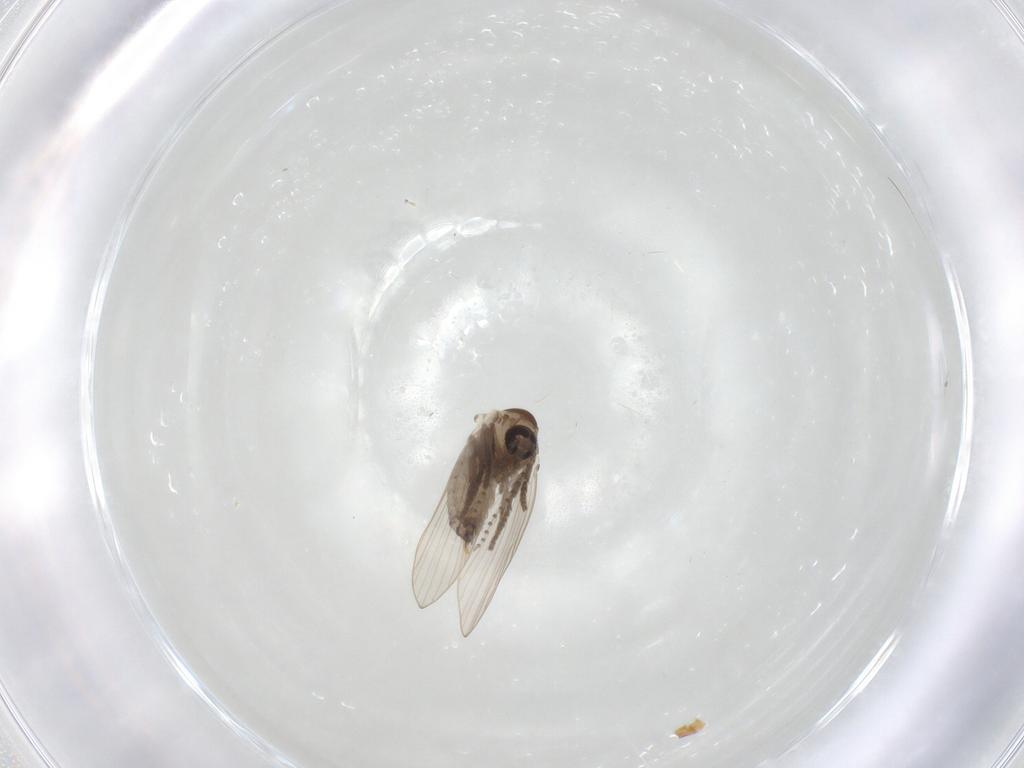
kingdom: Animalia
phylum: Arthropoda
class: Insecta
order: Diptera
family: Psychodidae
